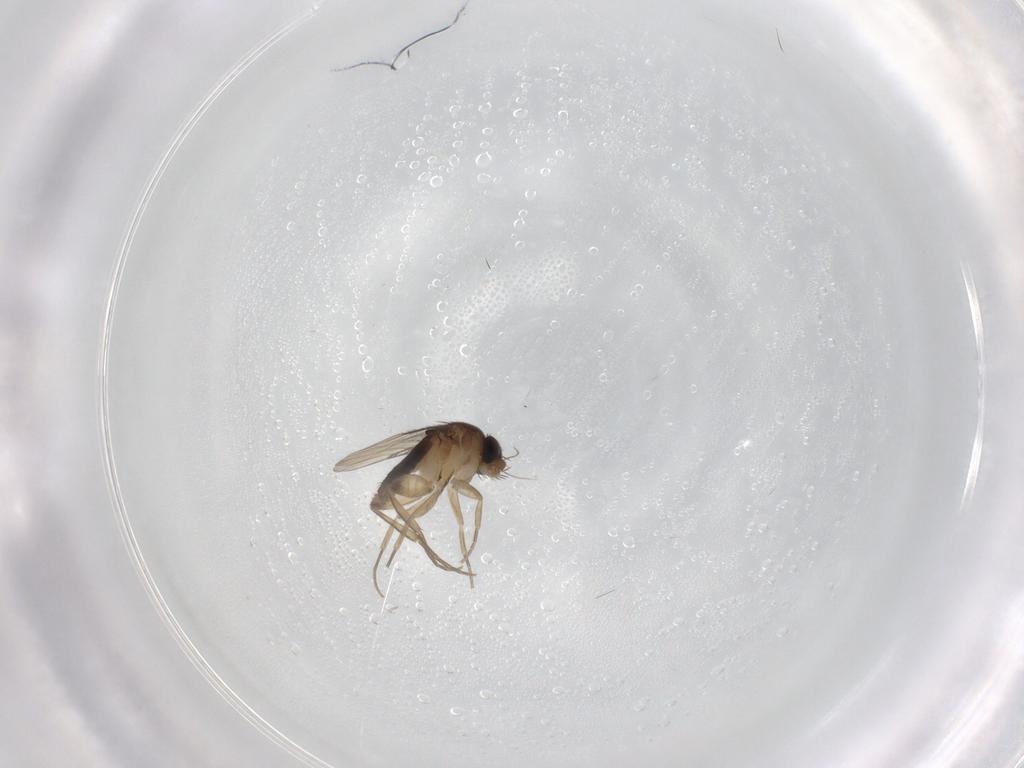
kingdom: Animalia
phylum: Arthropoda
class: Insecta
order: Diptera
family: Phoridae
